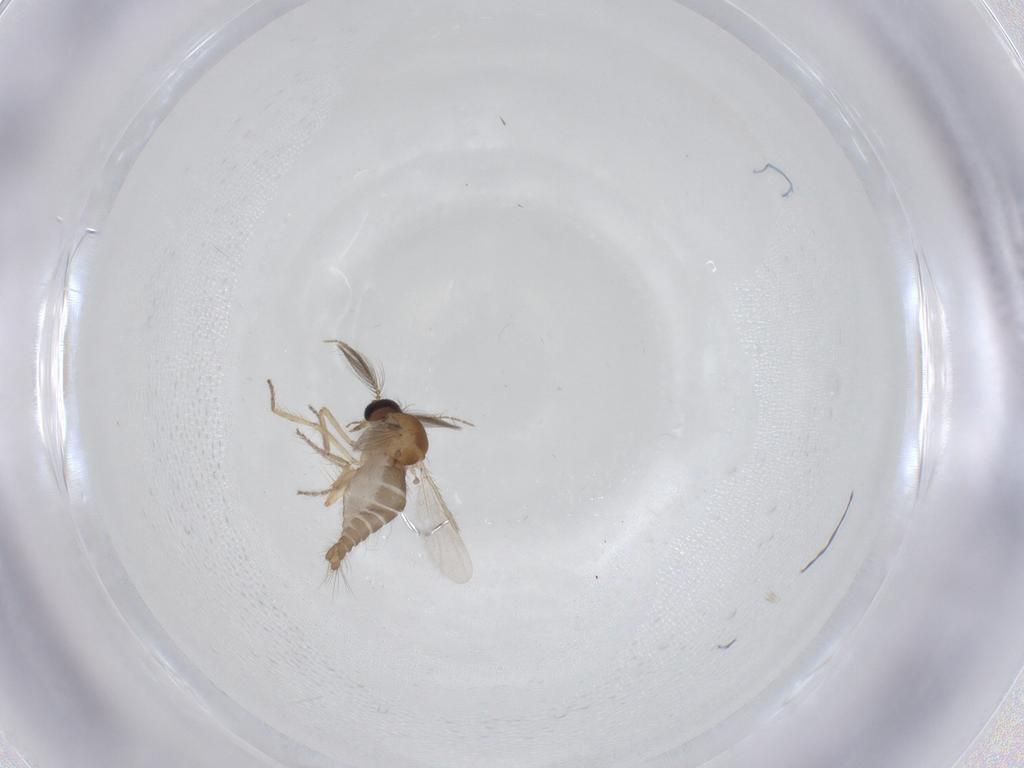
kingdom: Animalia
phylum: Arthropoda
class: Insecta
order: Diptera
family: Ceratopogonidae
